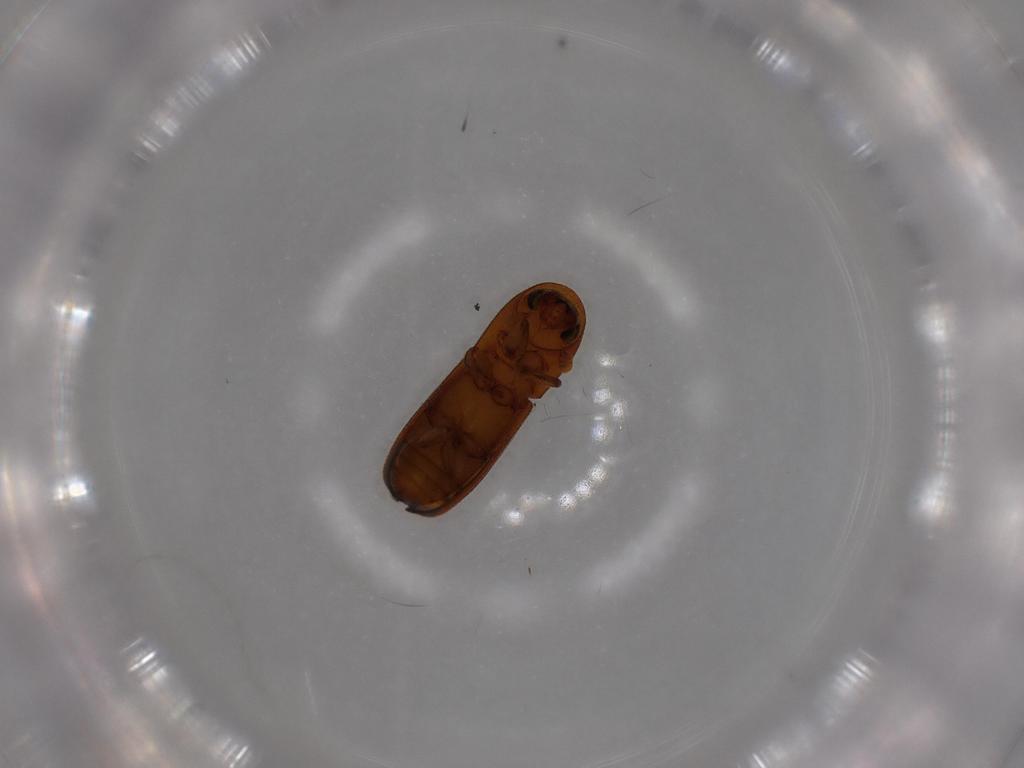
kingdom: Animalia
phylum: Arthropoda
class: Insecta
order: Coleoptera
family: Curculionidae
